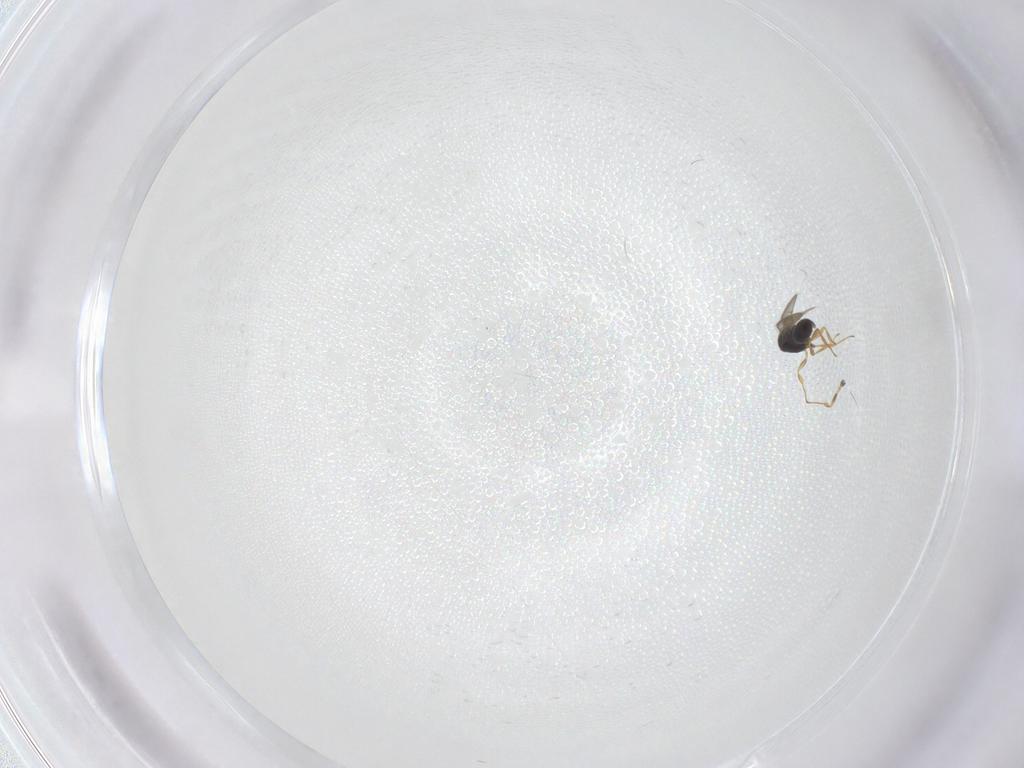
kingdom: Animalia
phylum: Arthropoda
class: Insecta
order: Hymenoptera
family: Scelionidae
